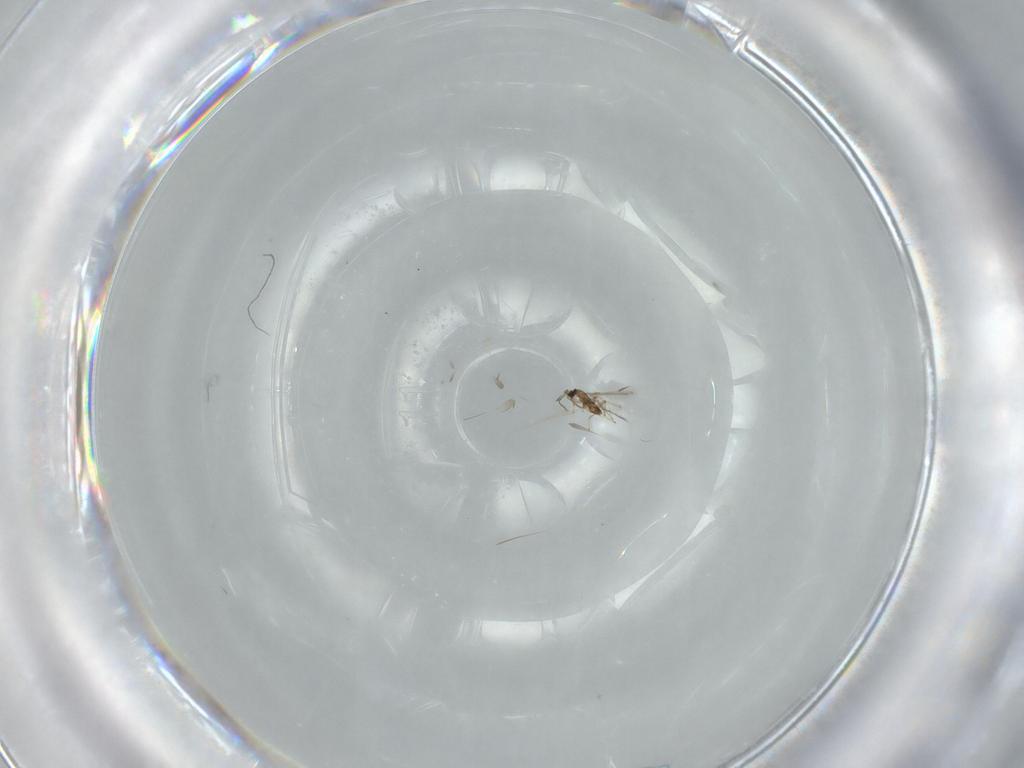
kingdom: Animalia
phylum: Arthropoda
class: Insecta
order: Hymenoptera
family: Mymaridae
